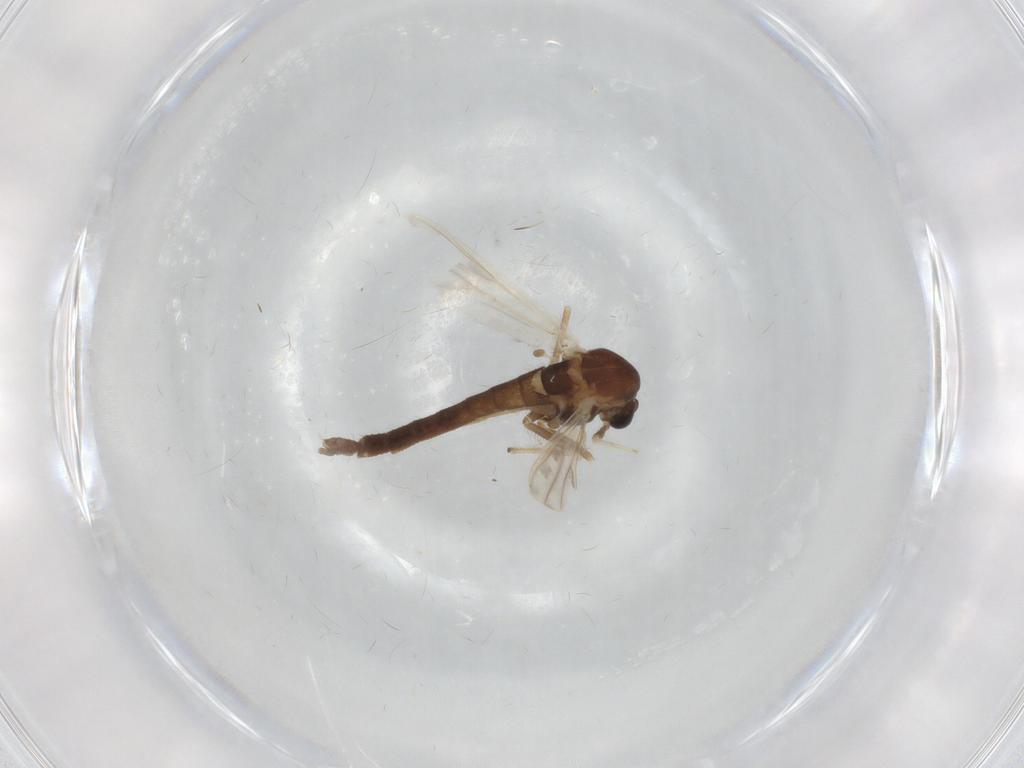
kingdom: Animalia
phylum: Arthropoda
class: Insecta
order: Diptera
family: Chironomidae
